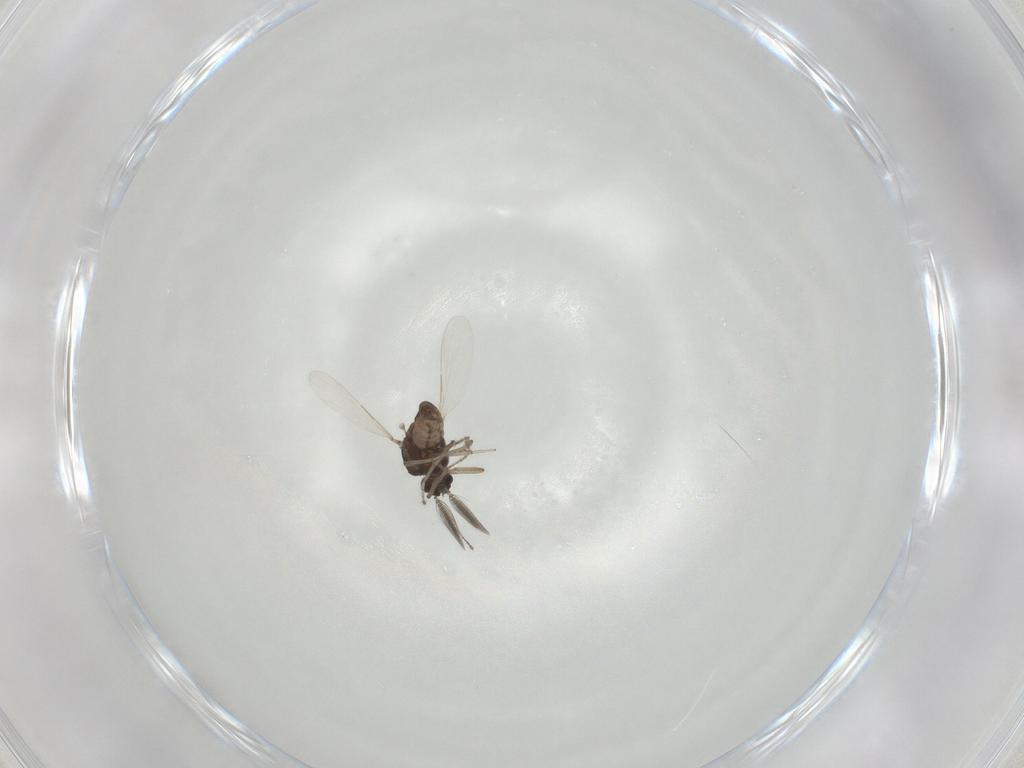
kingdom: Animalia
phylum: Arthropoda
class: Insecta
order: Diptera
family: Ceratopogonidae
